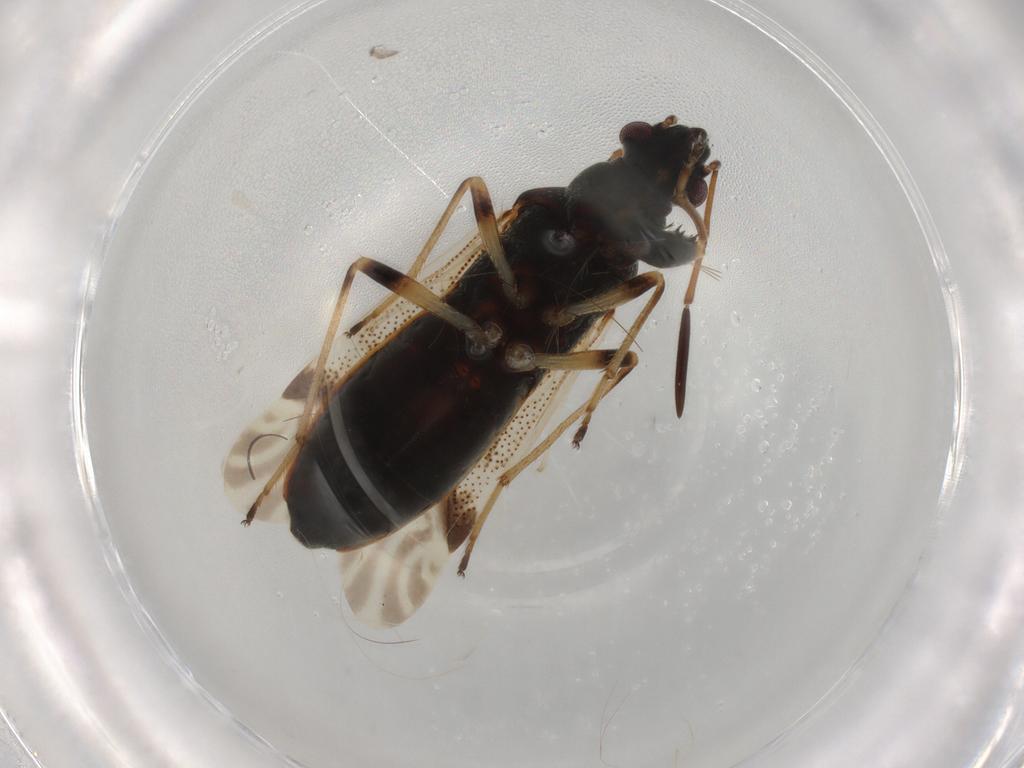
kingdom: Animalia
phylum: Arthropoda
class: Insecta
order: Hemiptera
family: Rhyparochromidae
